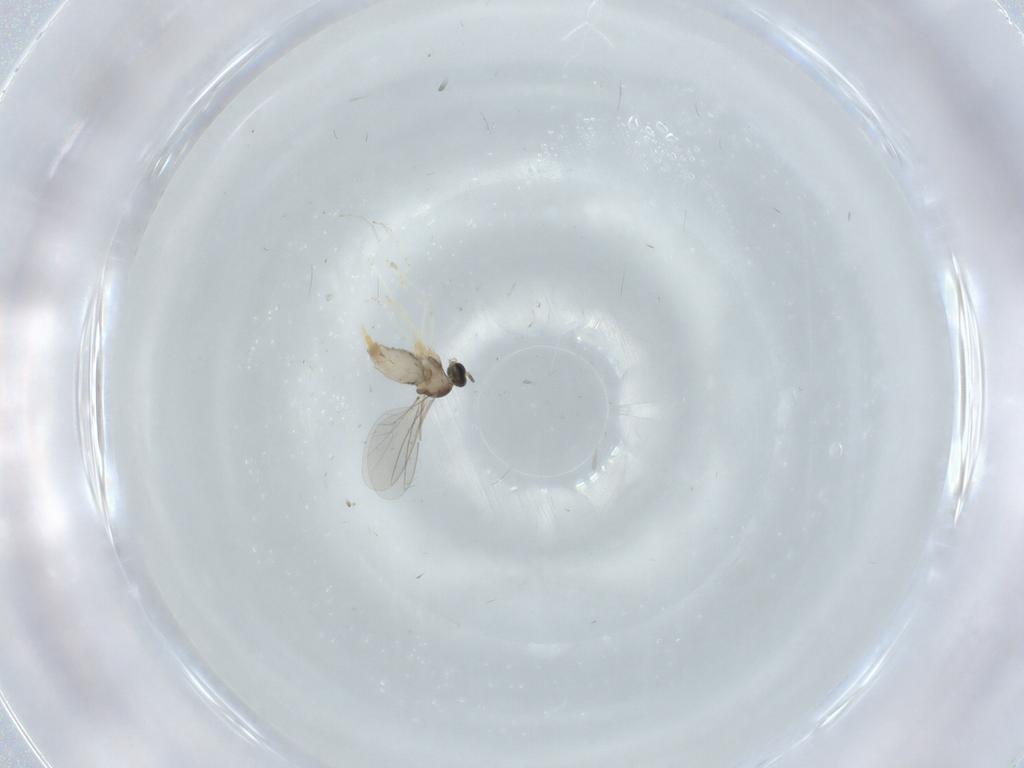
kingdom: Animalia
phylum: Arthropoda
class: Insecta
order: Diptera
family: Cecidomyiidae
